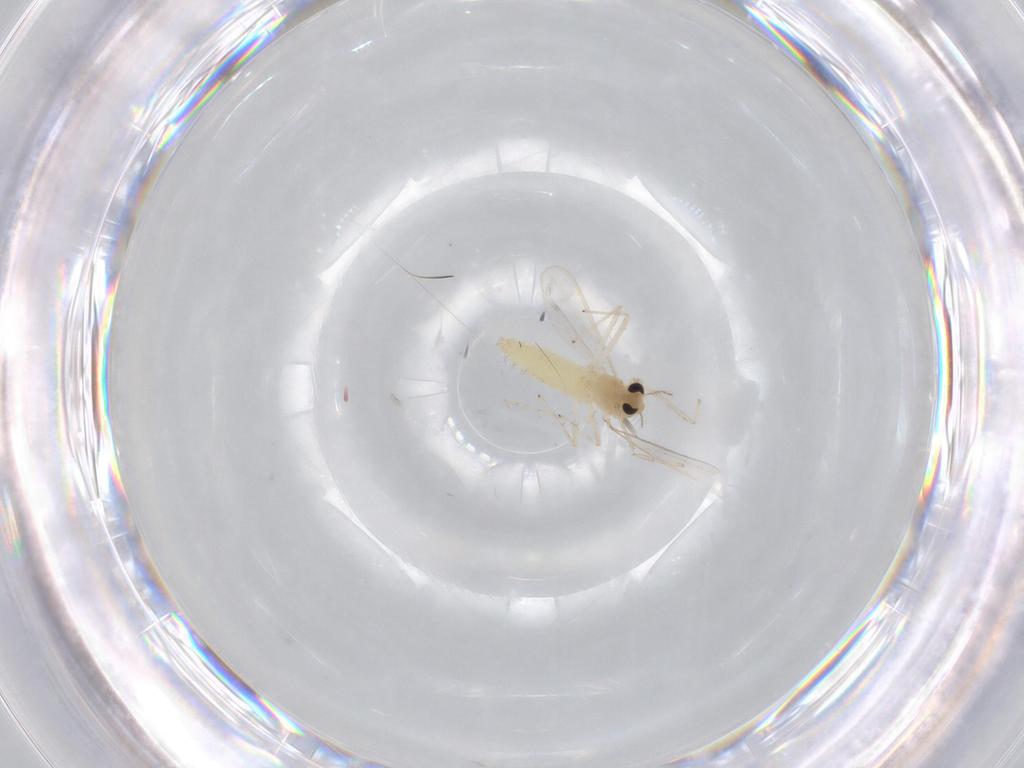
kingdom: Animalia
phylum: Arthropoda
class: Insecta
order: Diptera
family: Chironomidae
